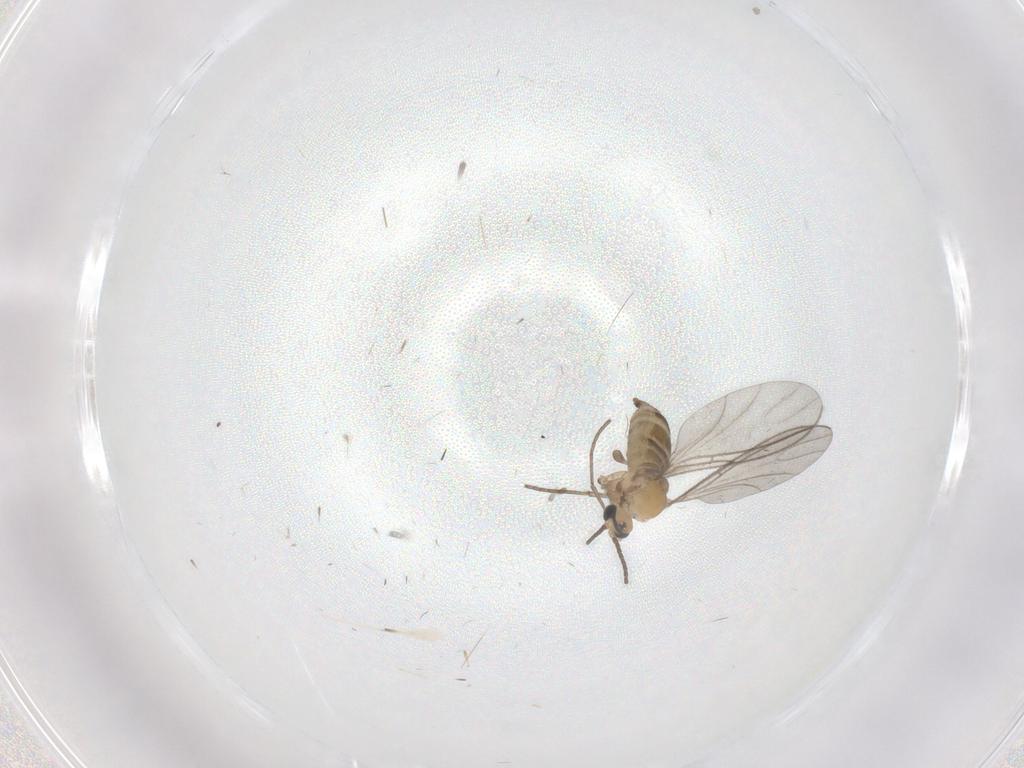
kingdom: Animalia
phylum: Arthropoda
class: Insecta
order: Diptera
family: Sciaridae
